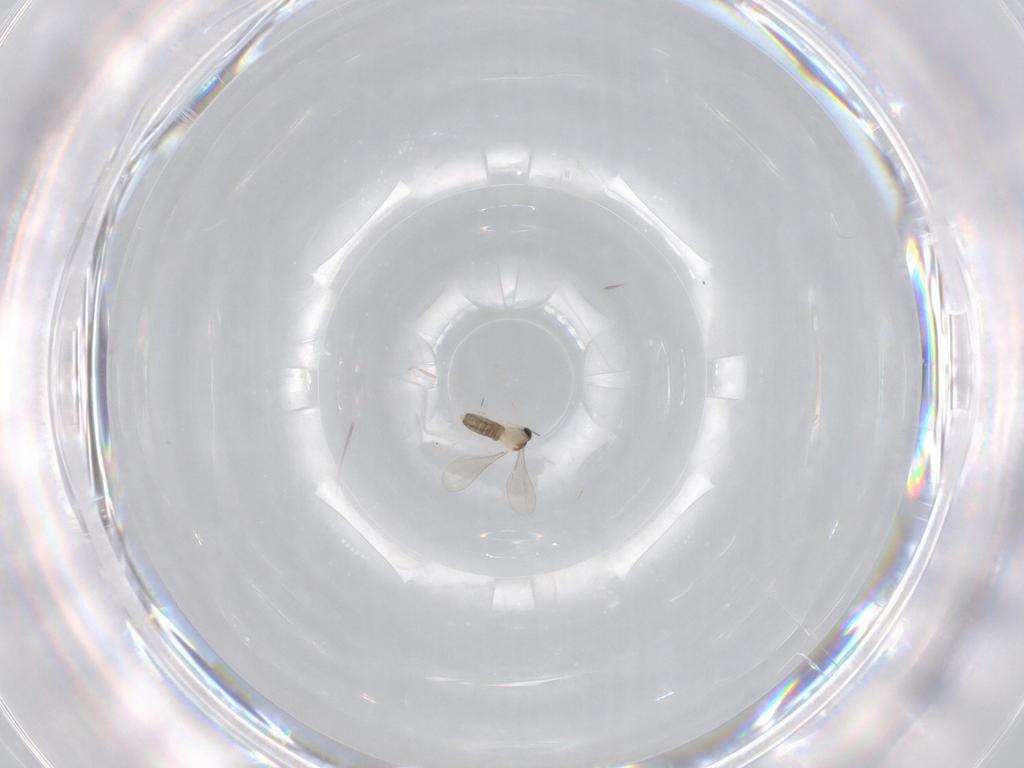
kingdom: Animalia
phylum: Arthropoda
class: Insecta
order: Diptera
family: Cecidomyiidae
